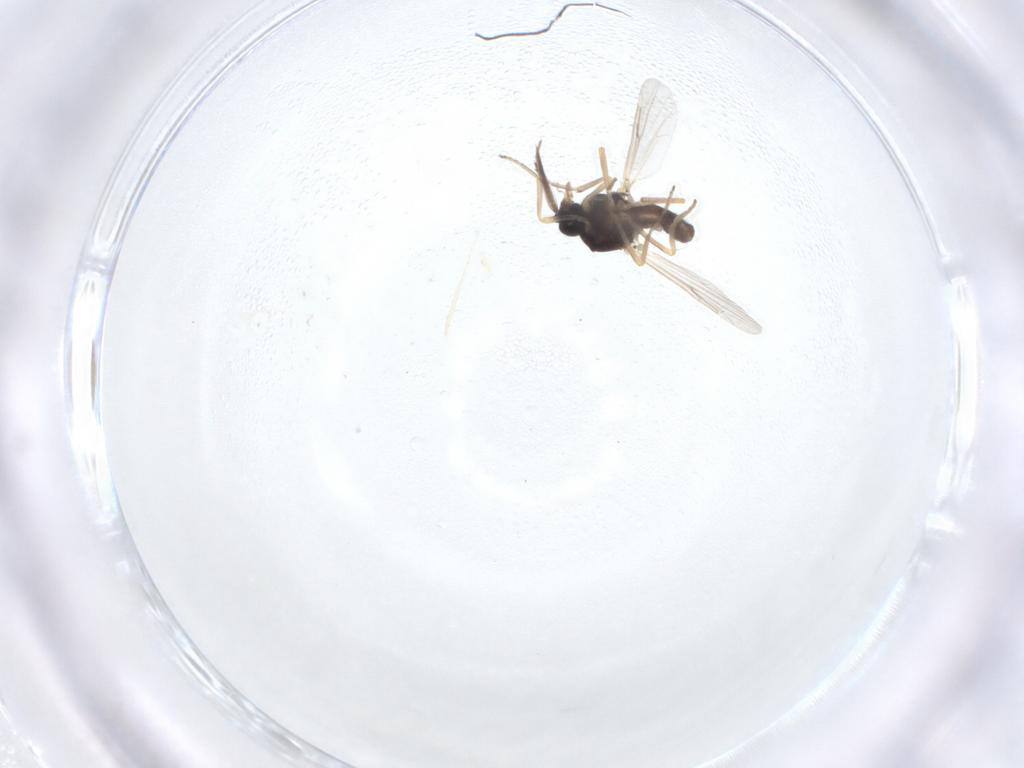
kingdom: Animalia
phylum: Arthropoda
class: Insecta
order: Diptera
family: Ceratopogonidae
